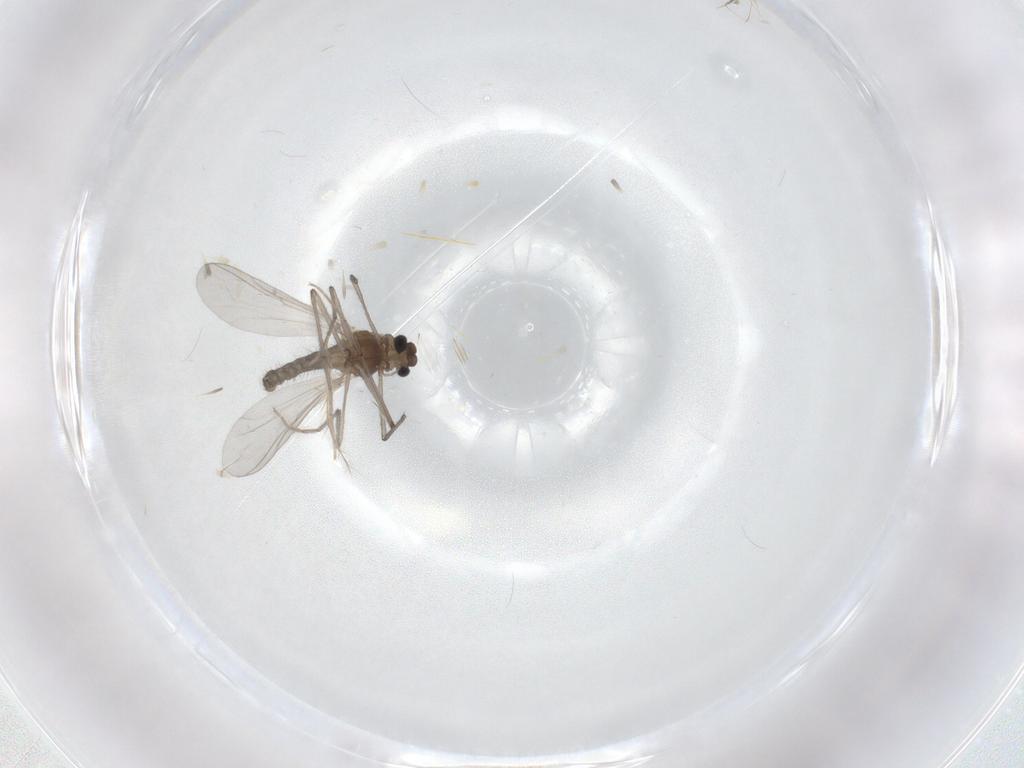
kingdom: Animalia
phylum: Arthropoda
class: Insecta
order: Diptera
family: Chironomidae
